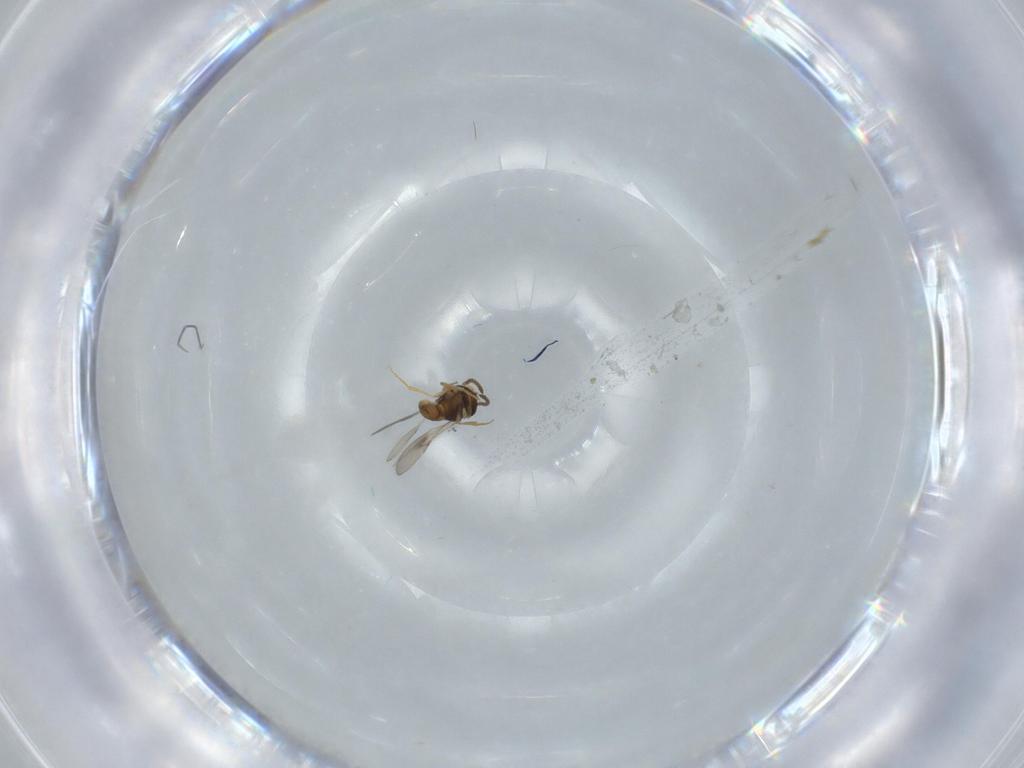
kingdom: Animalia
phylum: Arthropoda
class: Insecta
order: Hymenoptera
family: Scelionidae
